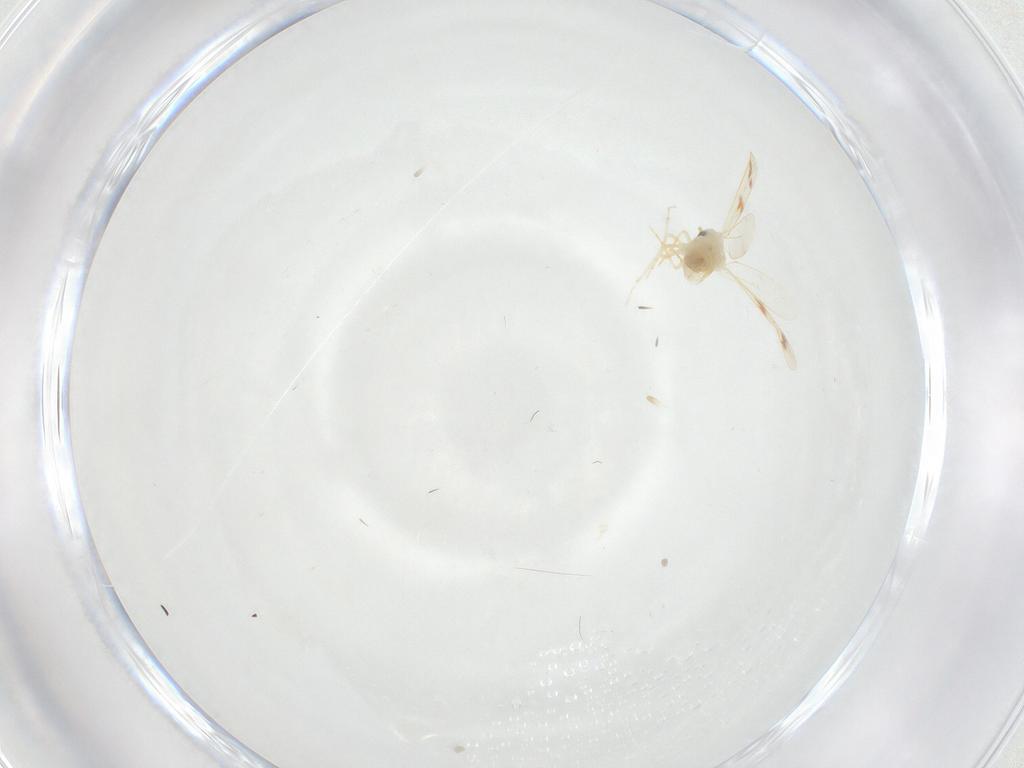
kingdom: Animalia
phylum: Arthropoda
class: Insecta
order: Hemiptera
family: Aleyrodidae
